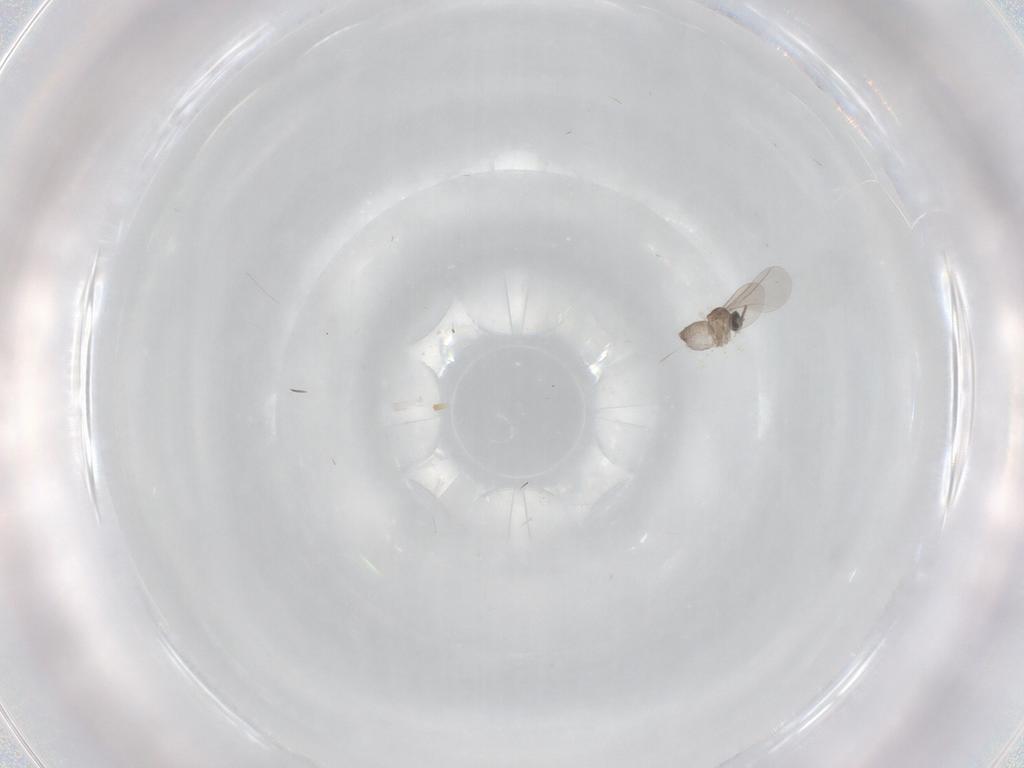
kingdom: Animalia
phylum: Arthropoda
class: Insecta
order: Diptera
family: Cecidomyiidae
